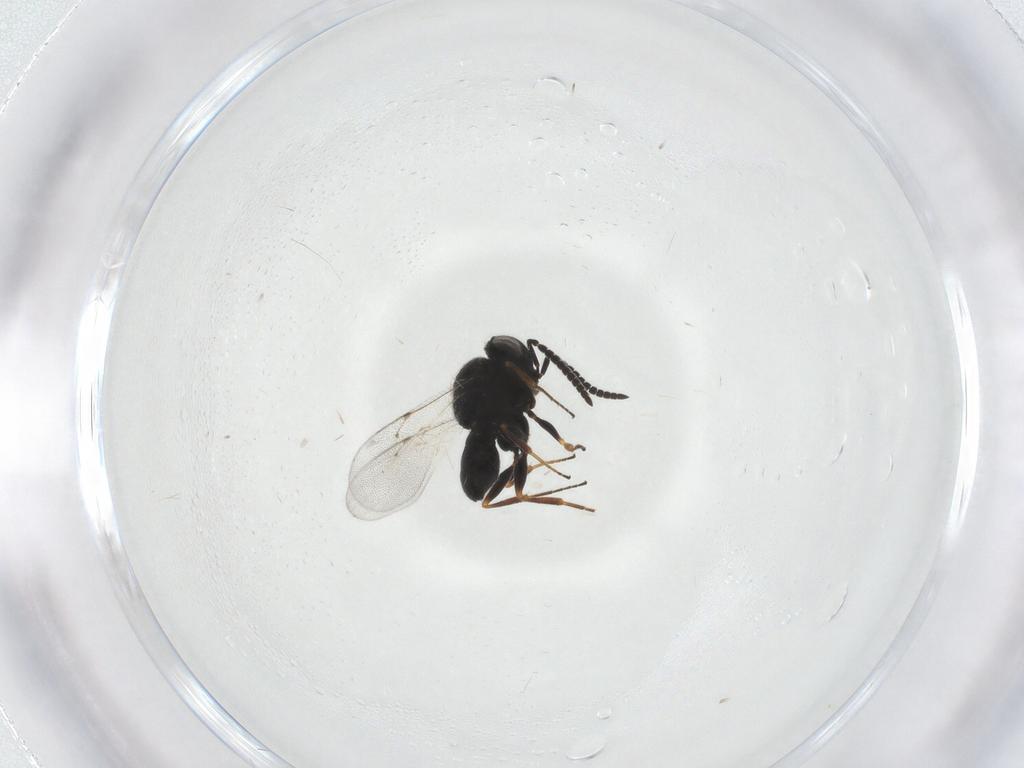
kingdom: Animalia
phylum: Arthropoda
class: Insecta
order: Hymenoptera
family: Scelionidae
